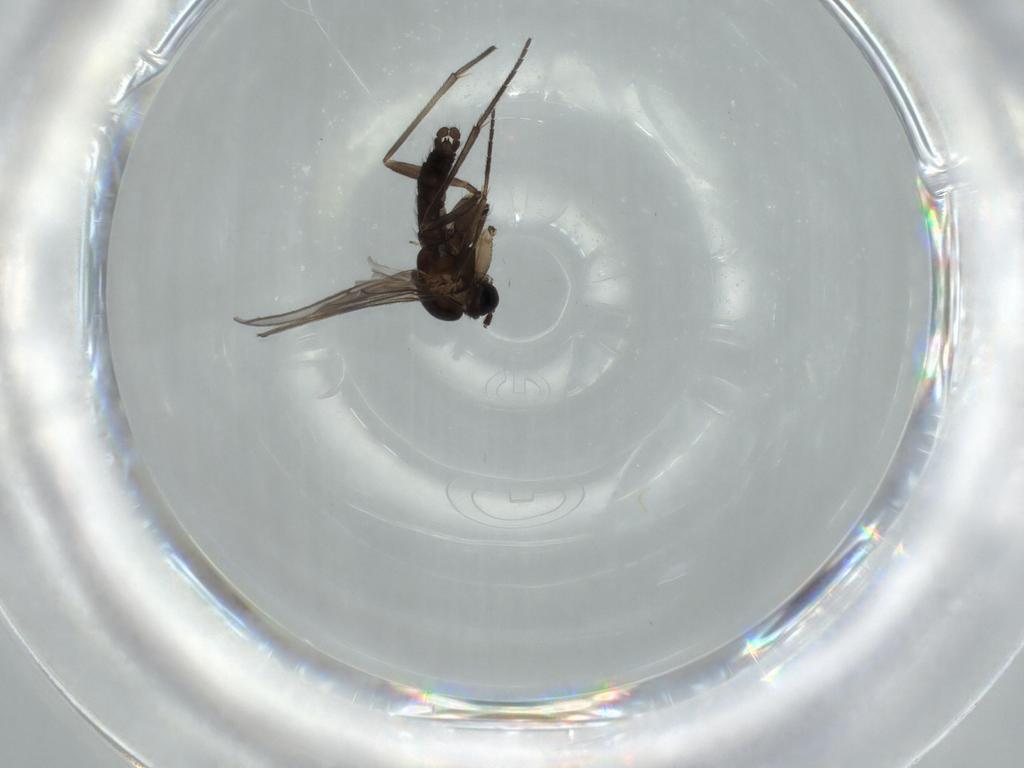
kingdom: Animalia
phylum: Arthropoda
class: Insecta
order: Diptera
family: Sciaridae
